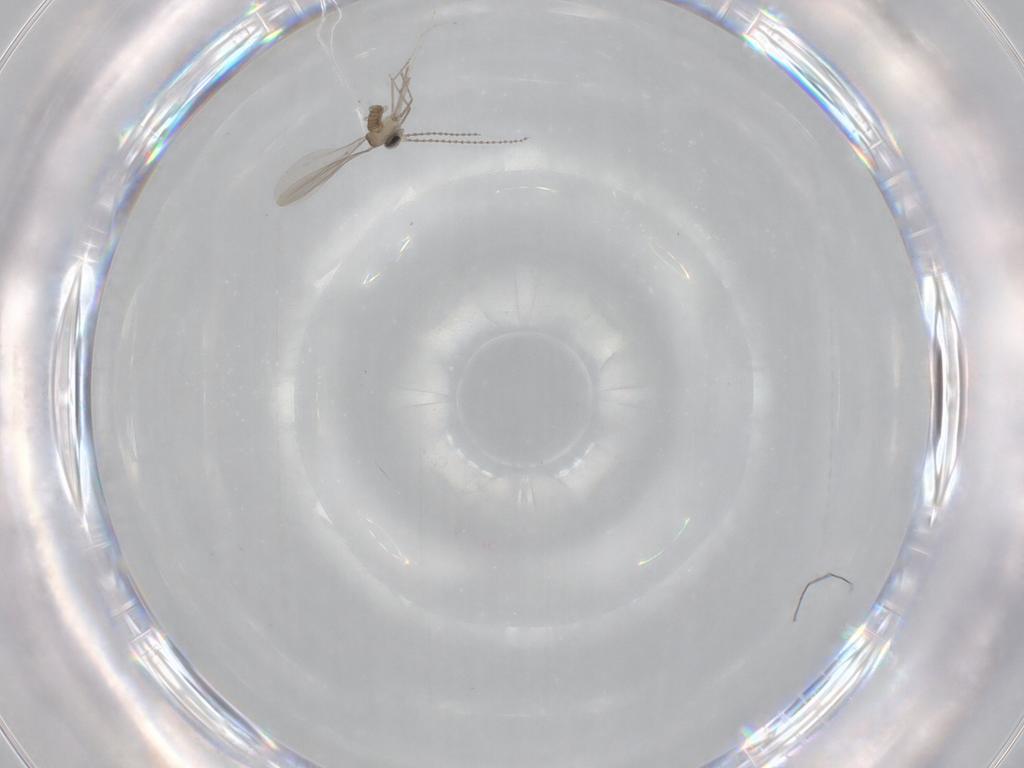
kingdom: Animalia
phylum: Arthropoda
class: Insecta
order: Diptera
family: Cecidomyiidae
